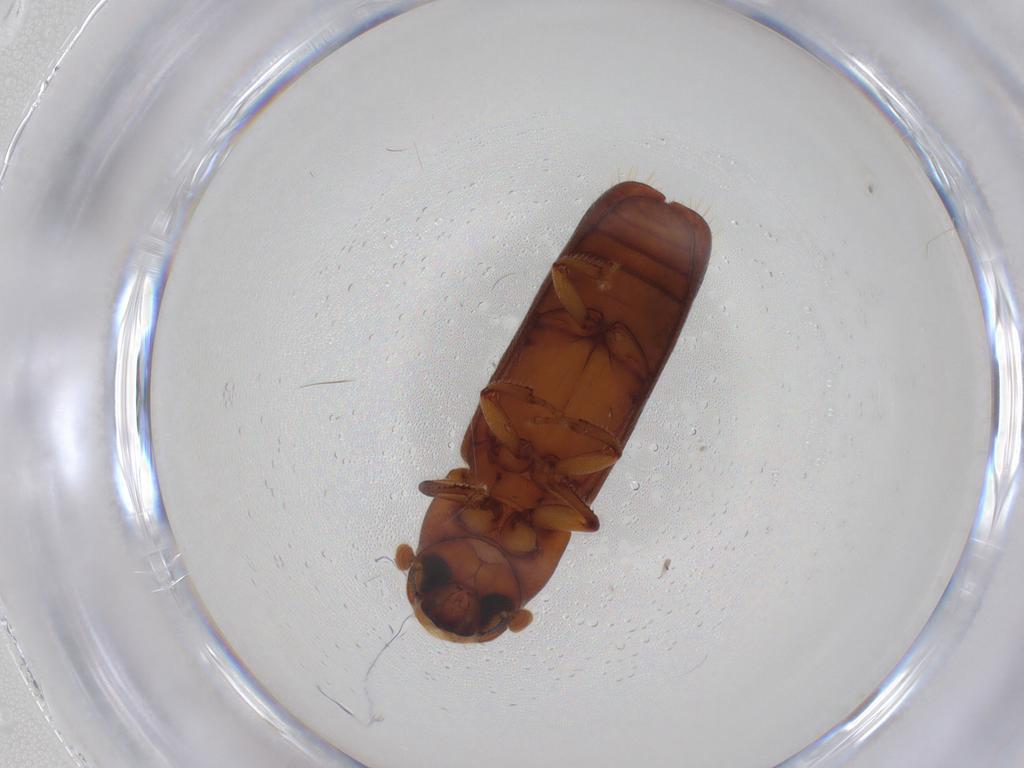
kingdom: Animalia
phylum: Arthropoda
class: Insecta
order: Coleoptera
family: Curculionidae
